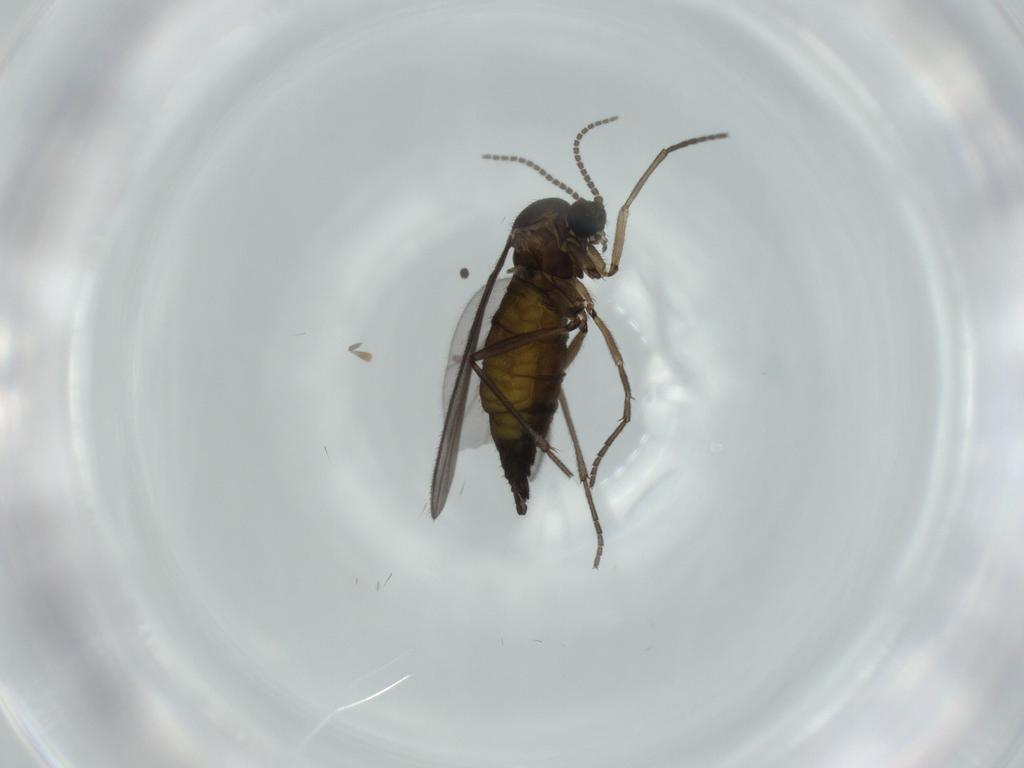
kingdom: Animalia
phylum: Arthropoda
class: Insecta
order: Diptera
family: Sciaridae
